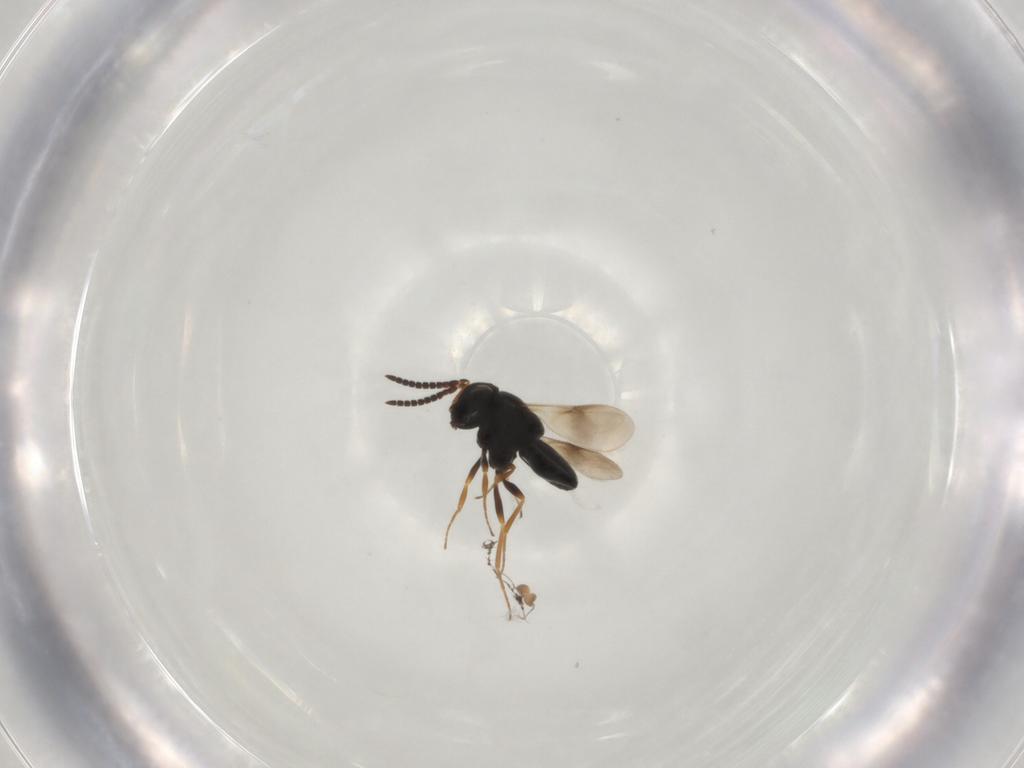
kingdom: Animalia
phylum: Arthropoda
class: Insecta
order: Hymenoptera
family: Scelionidae
